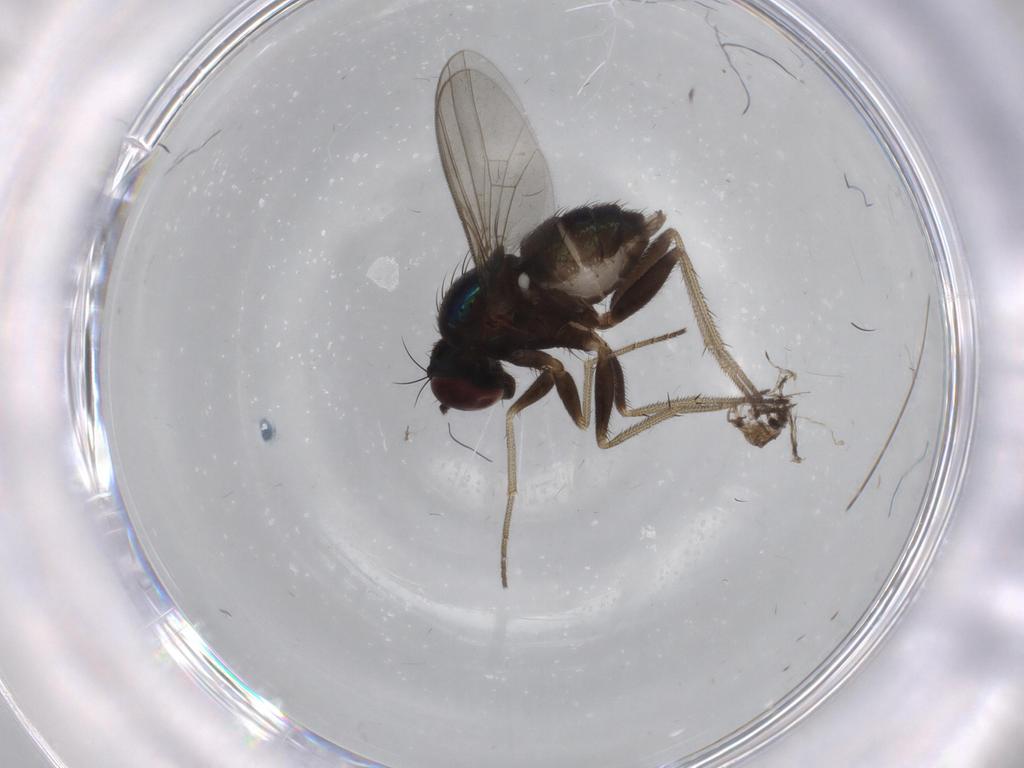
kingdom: Animalia
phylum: Arthropoda
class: Insecta
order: Diptera
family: Dolichopodidae
